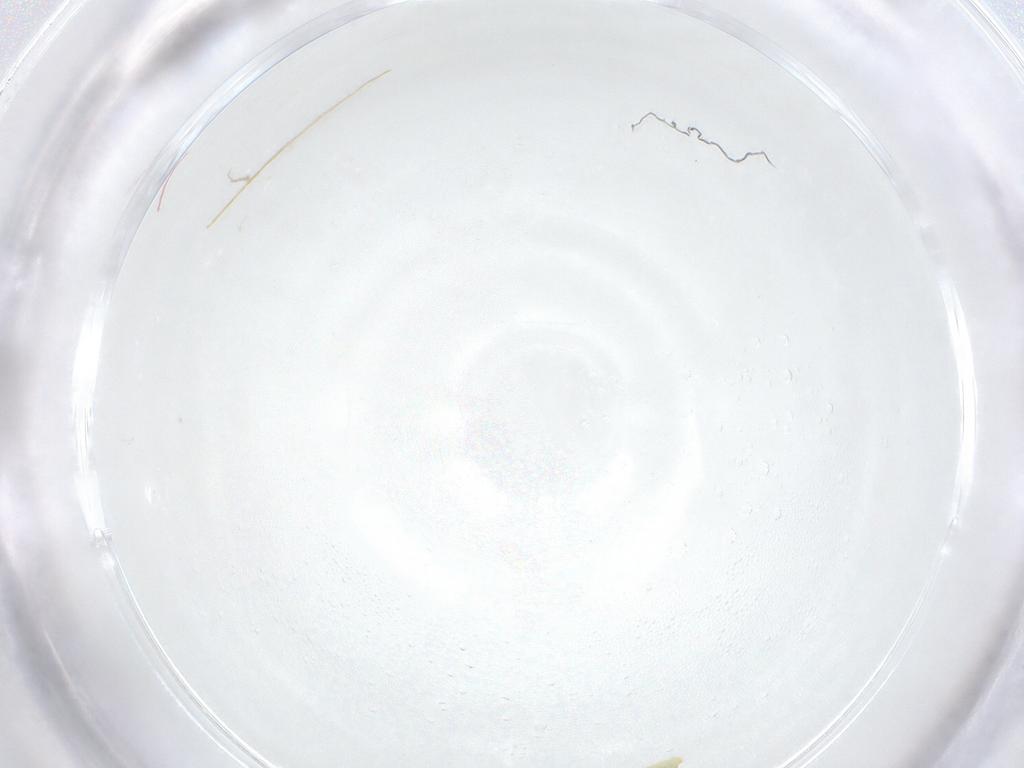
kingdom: Animalia
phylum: Arthropoda
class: Collembola
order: Entomobryomorpha
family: Paronellidae
